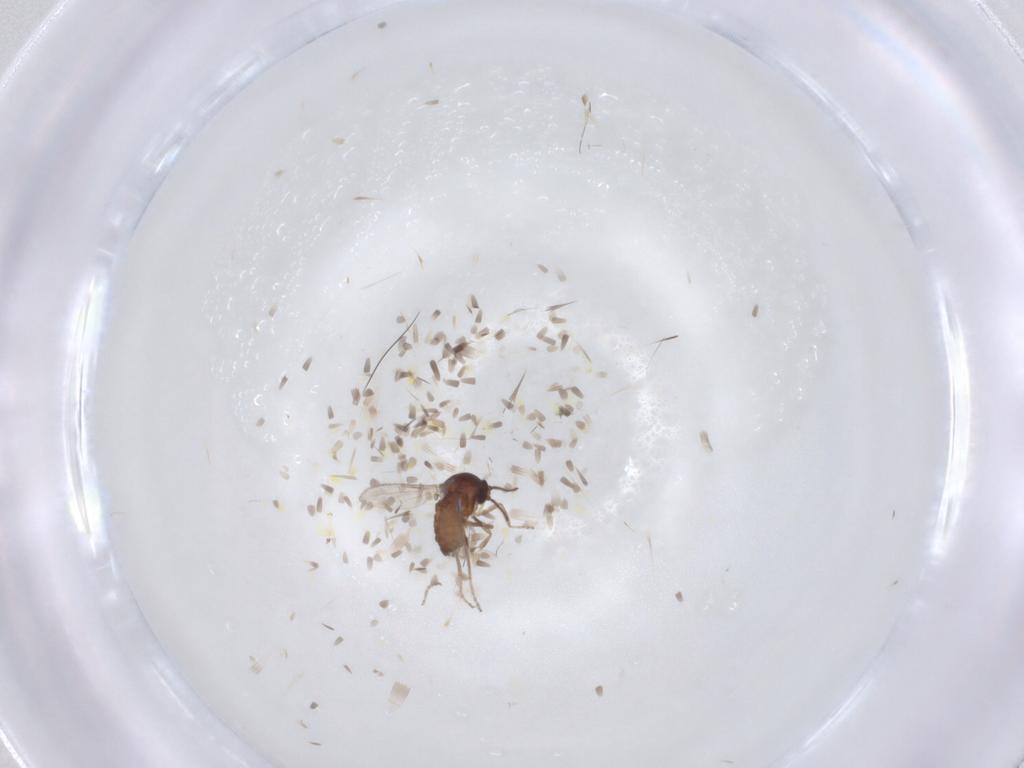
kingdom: Animalia
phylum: Arthropoda
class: Insecta
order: Diptera
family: Ceratopogonidae
